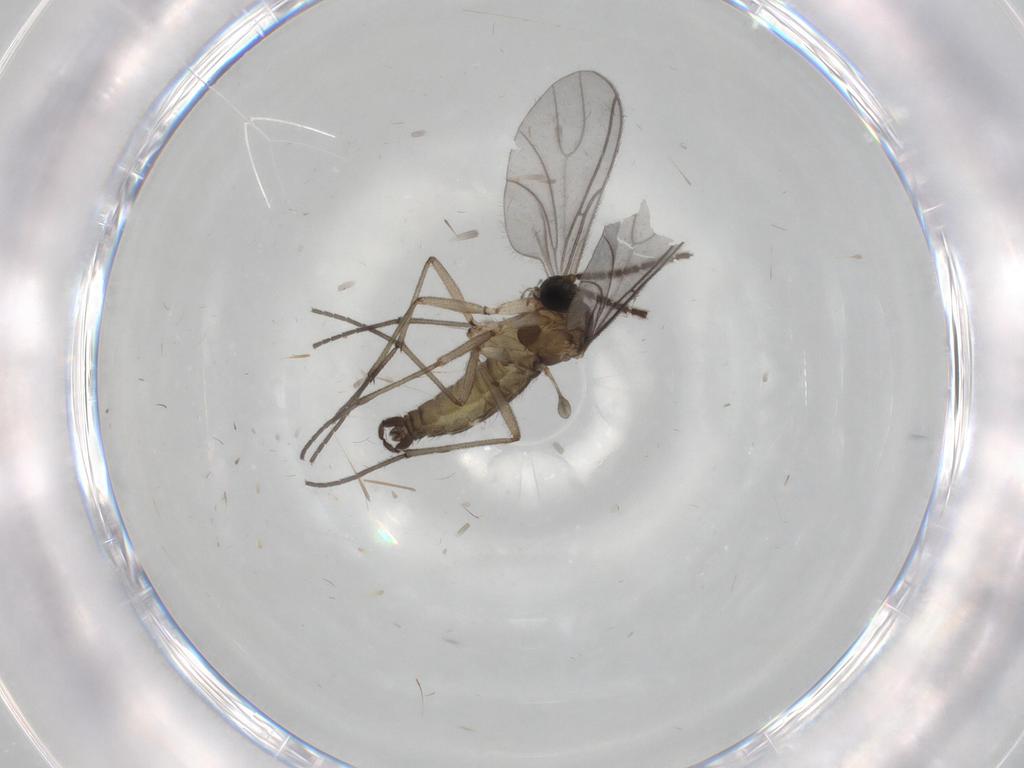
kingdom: Animalia
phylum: Arthropoda
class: Insecta
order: Diptera
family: Sciaridae
